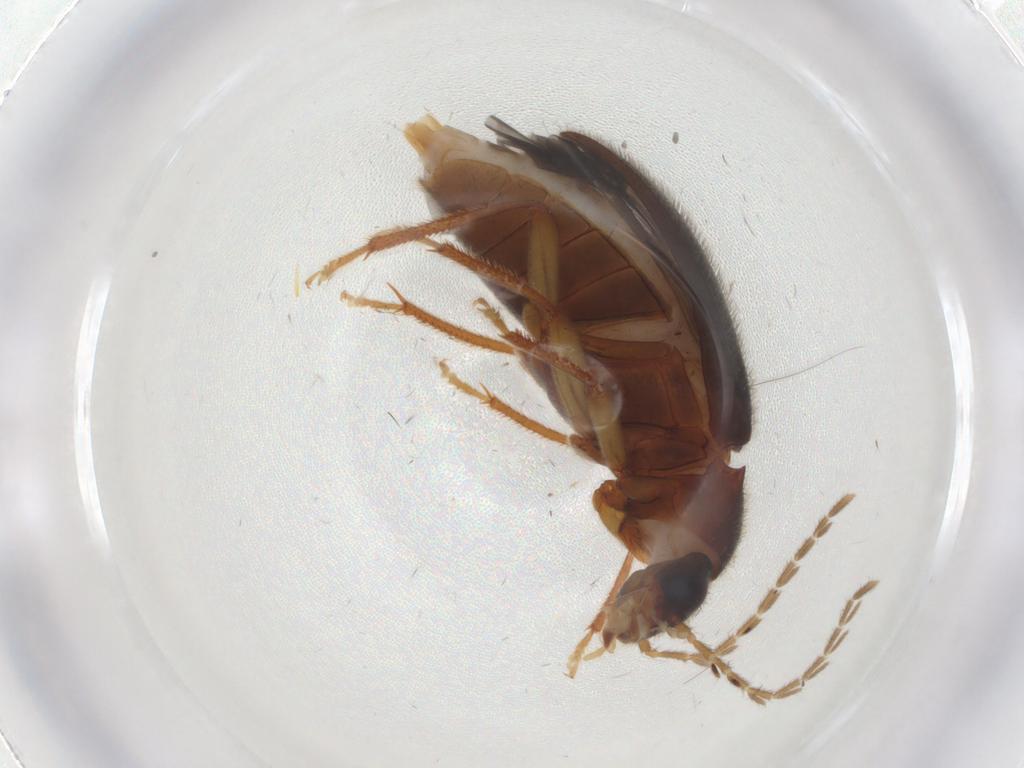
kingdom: Animalia
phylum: Arthropoda
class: Insecta
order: Coleoptera
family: Ptilodactylidae
